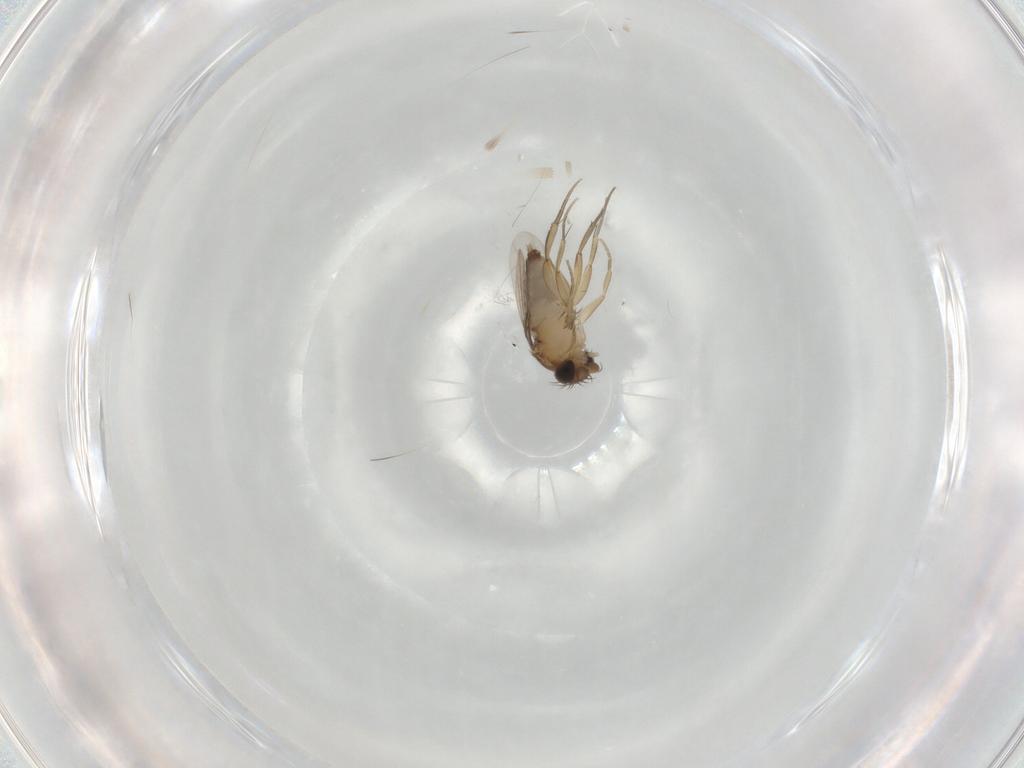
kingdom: Animalia
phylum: Arthropoda
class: Insecta
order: Diptera
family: Phoridae
